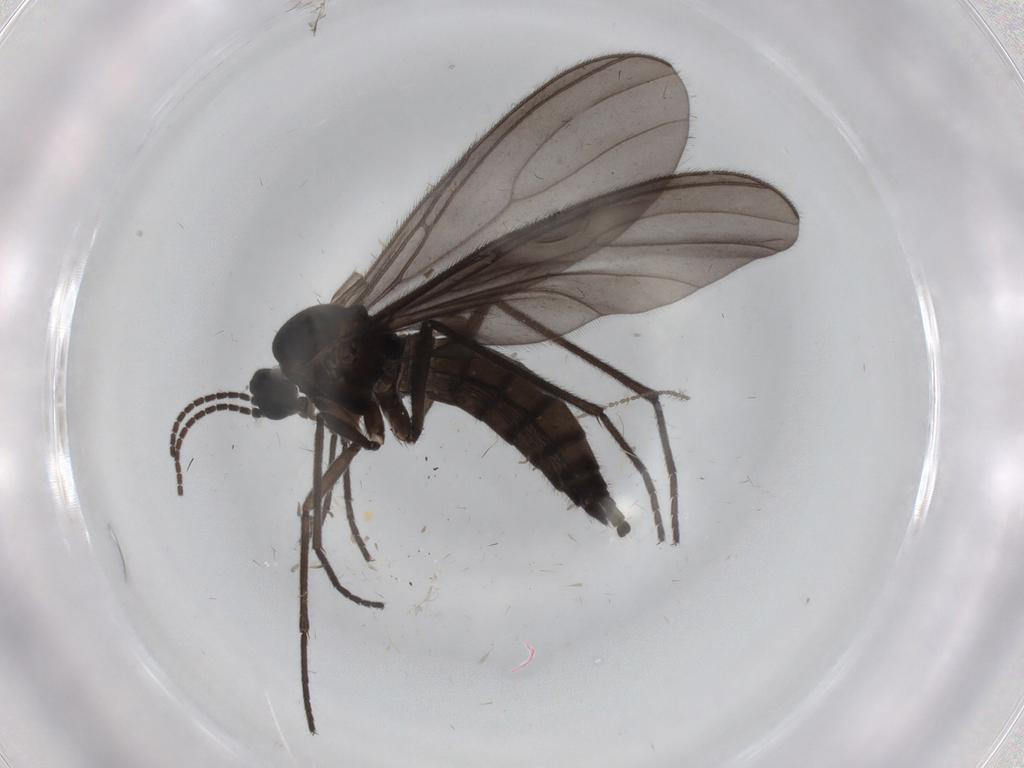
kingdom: Animalia
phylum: Arthropoda
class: Insecta
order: Diptera
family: Sciaridae
